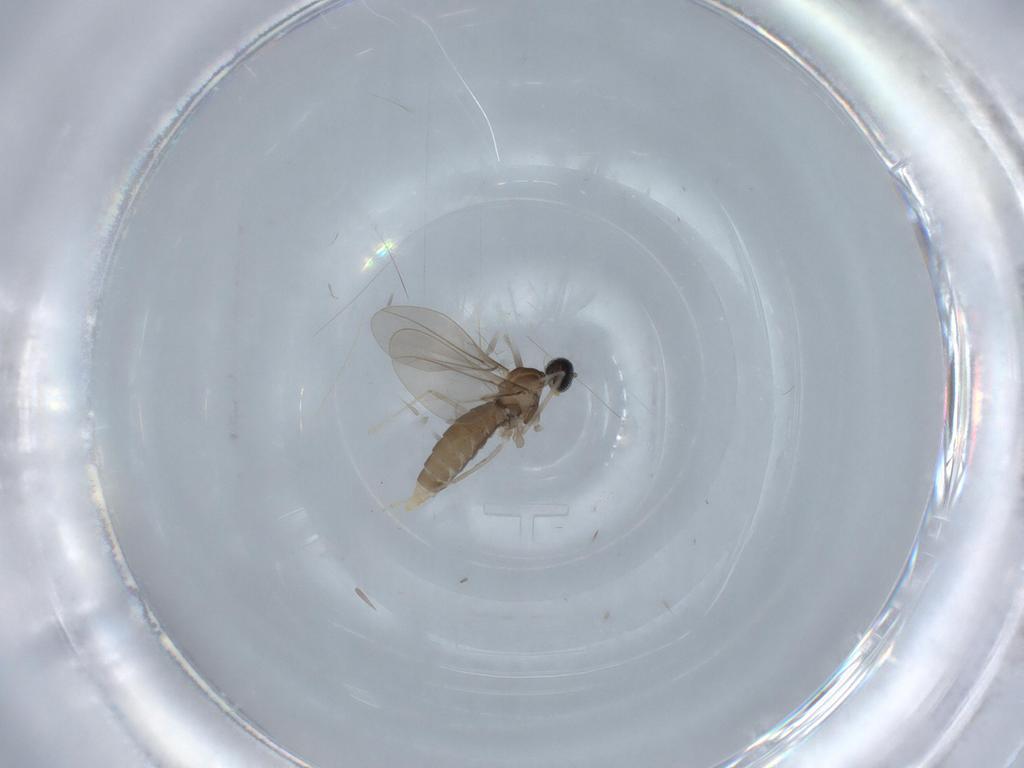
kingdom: Animalia
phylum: Arthropoda
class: Insecta
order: Diptera
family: Cecidomyiidae
